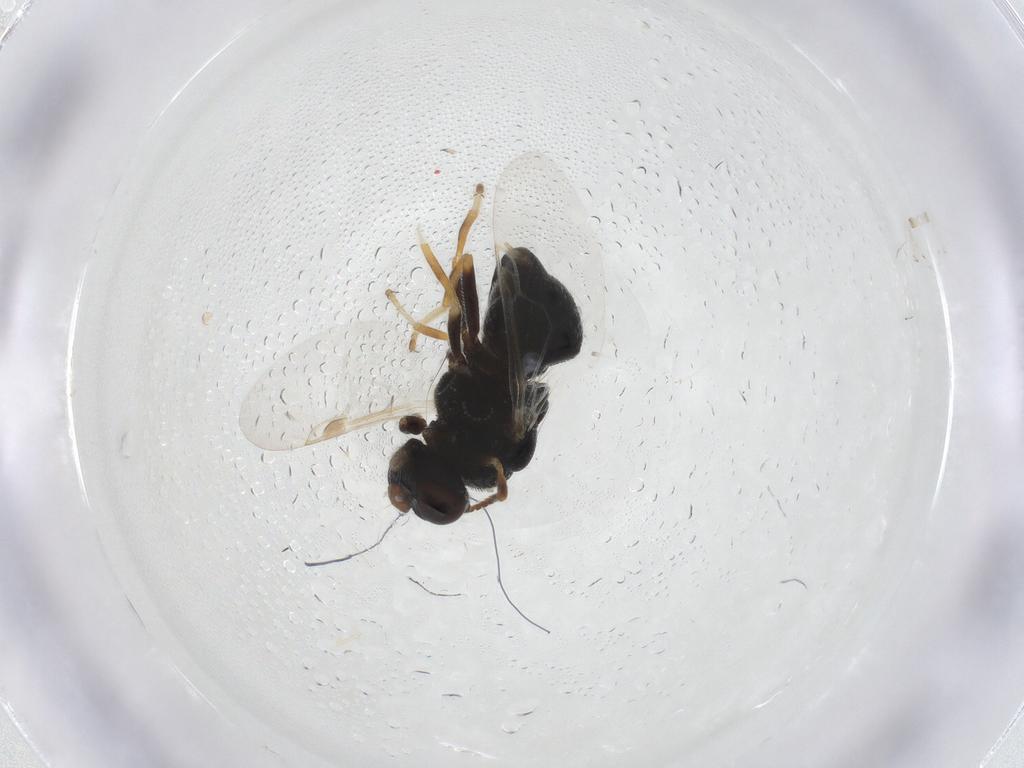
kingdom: Animalia
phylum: Arthropoda
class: Insecta
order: Diptera
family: Stratiomyidae
